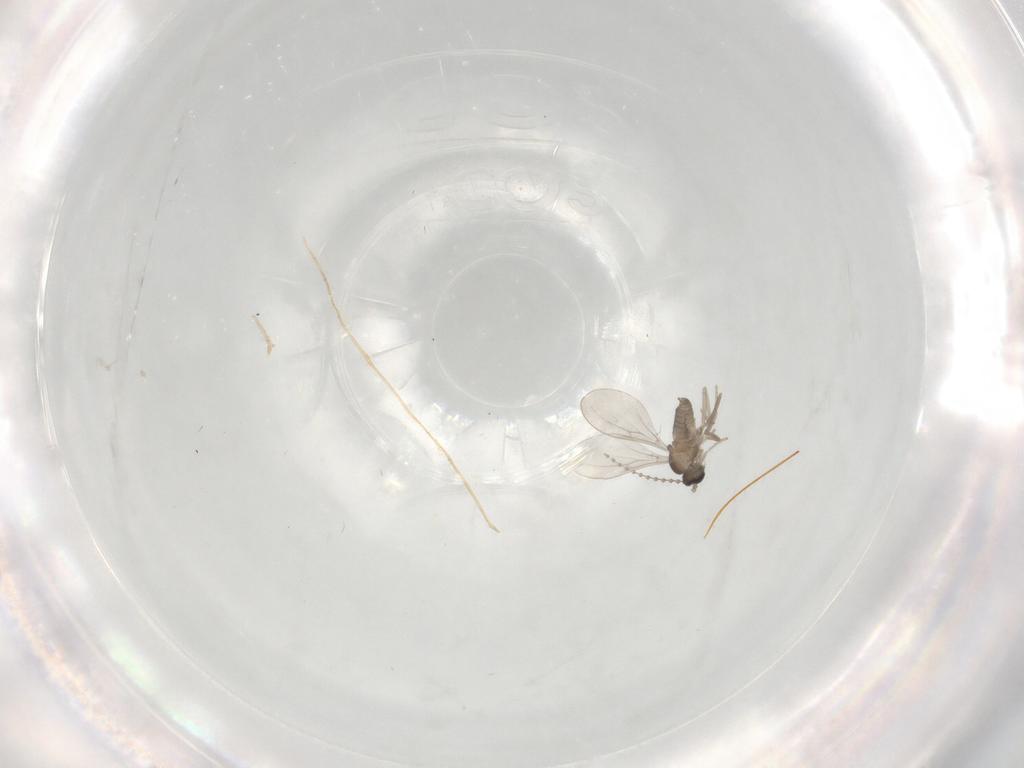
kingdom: Animalia
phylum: Arthropoda
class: Insecta
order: Diptera
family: Cecidomyiidae
